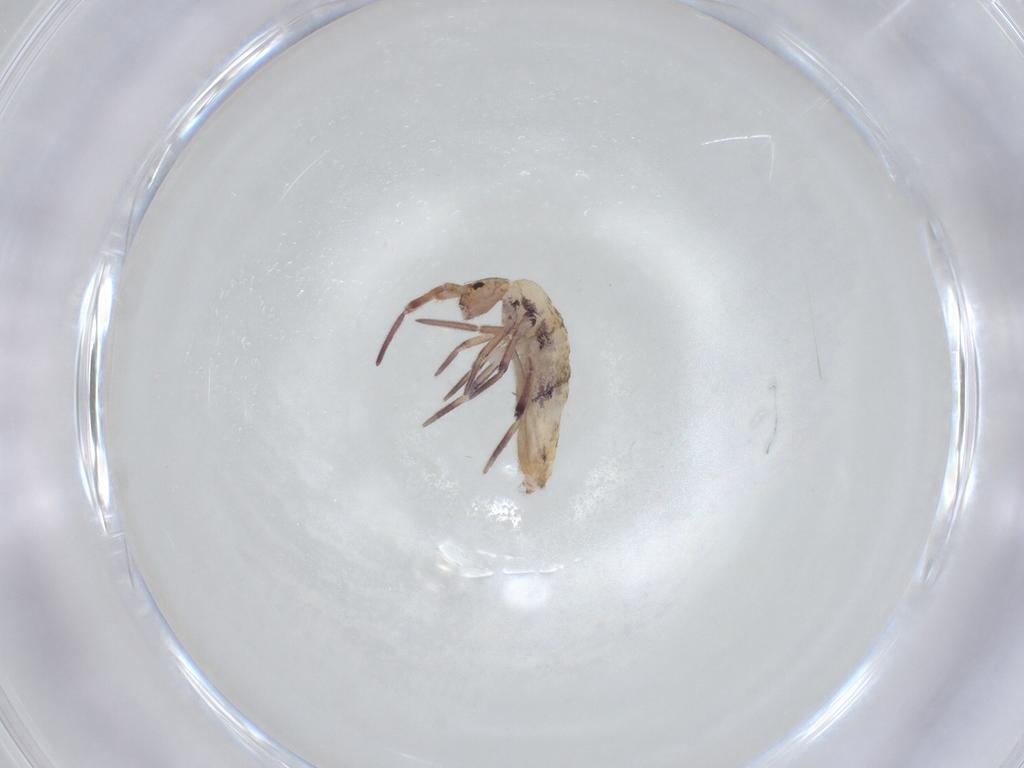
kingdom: Animalia
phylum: Arthropoda
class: Collembola
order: Entomobryomorpha
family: Entomobryidae
